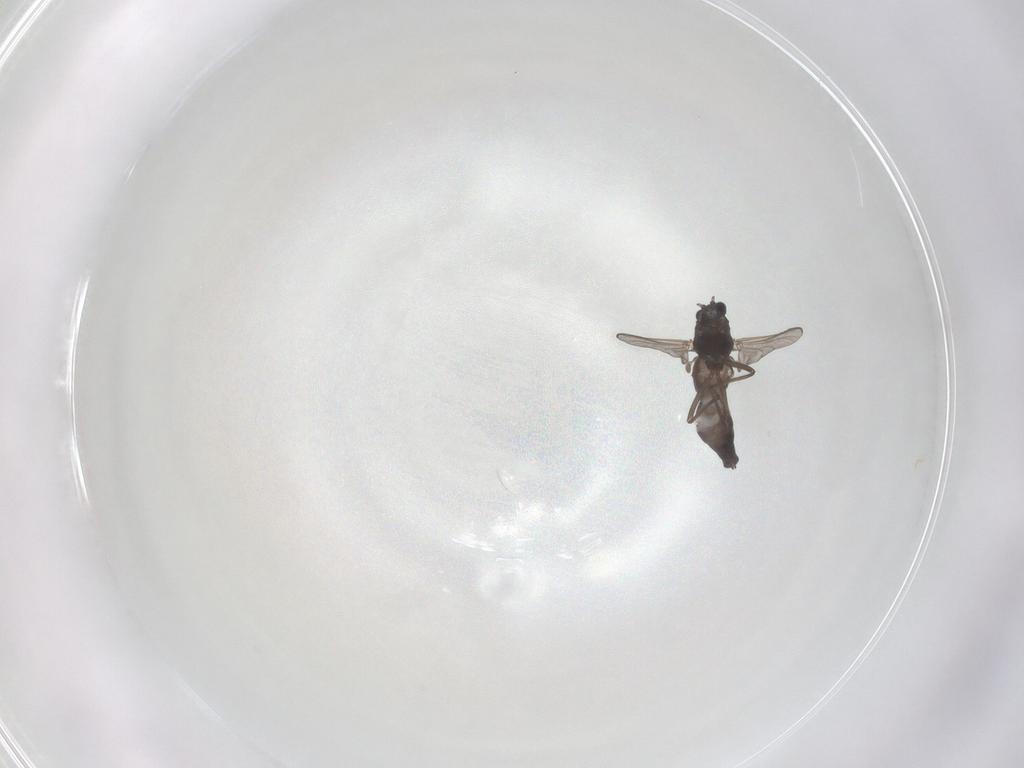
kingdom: Animalia
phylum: Arthropoda
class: Insecta
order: Diptera
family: Chironomidae
